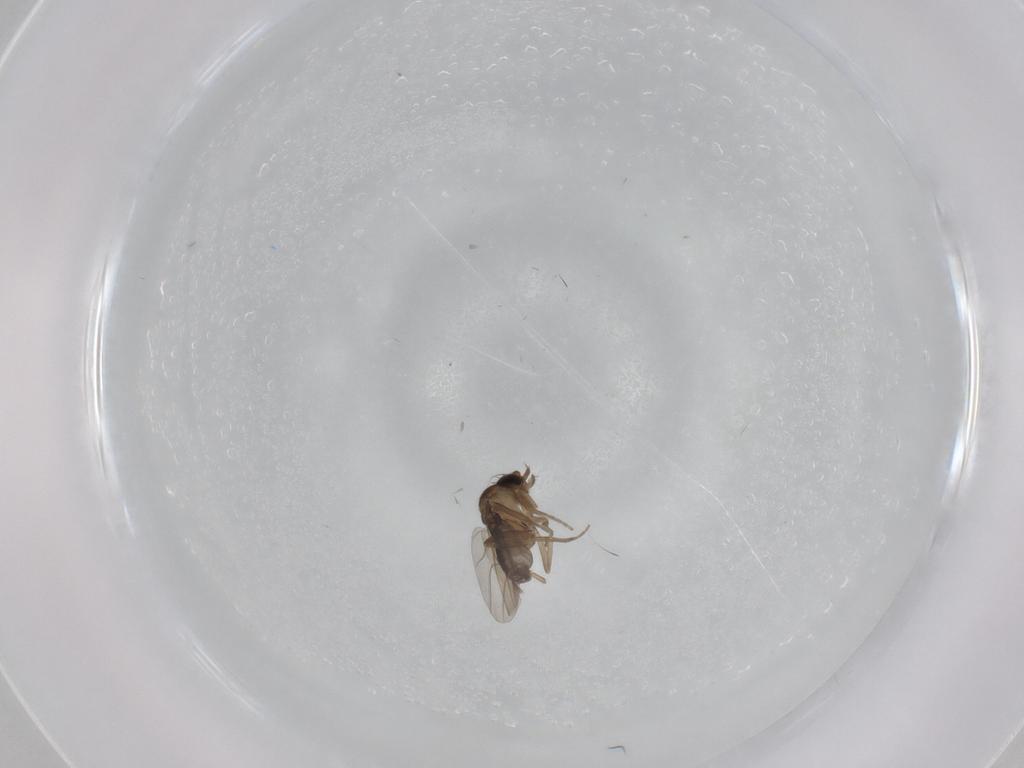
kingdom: Animalia
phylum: Arthropoda
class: Insecta
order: Diptera
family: Phoridae
